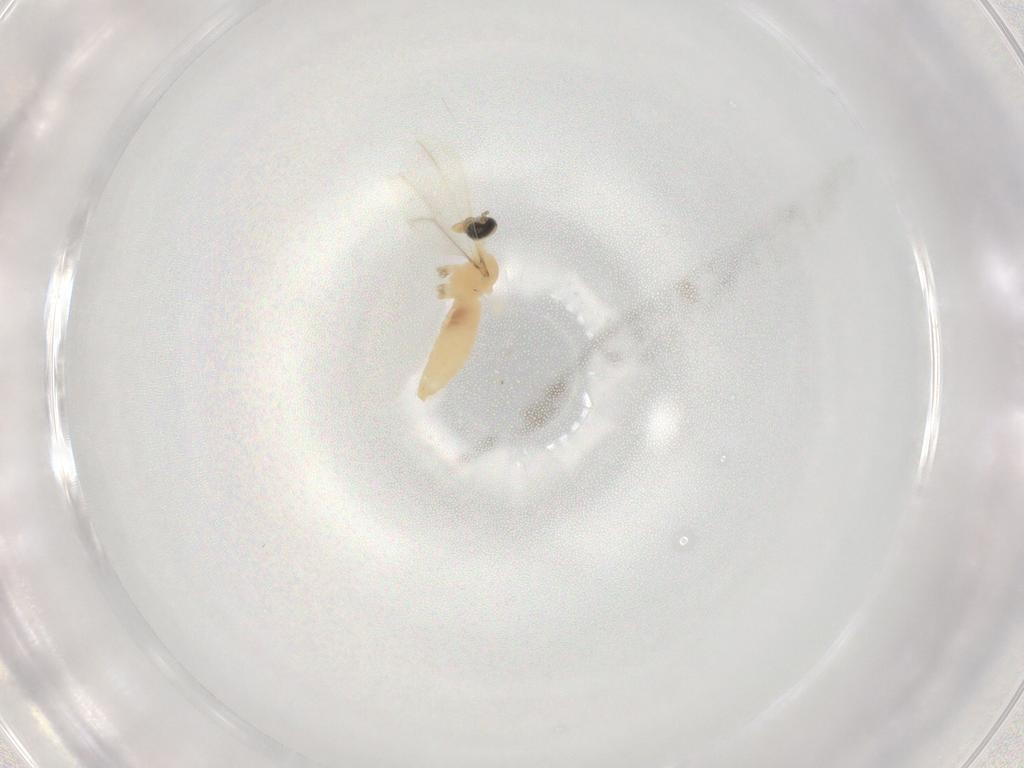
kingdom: Animalia
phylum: Arthropoda
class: Insecta
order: Diptera
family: Cecidomyiidae
